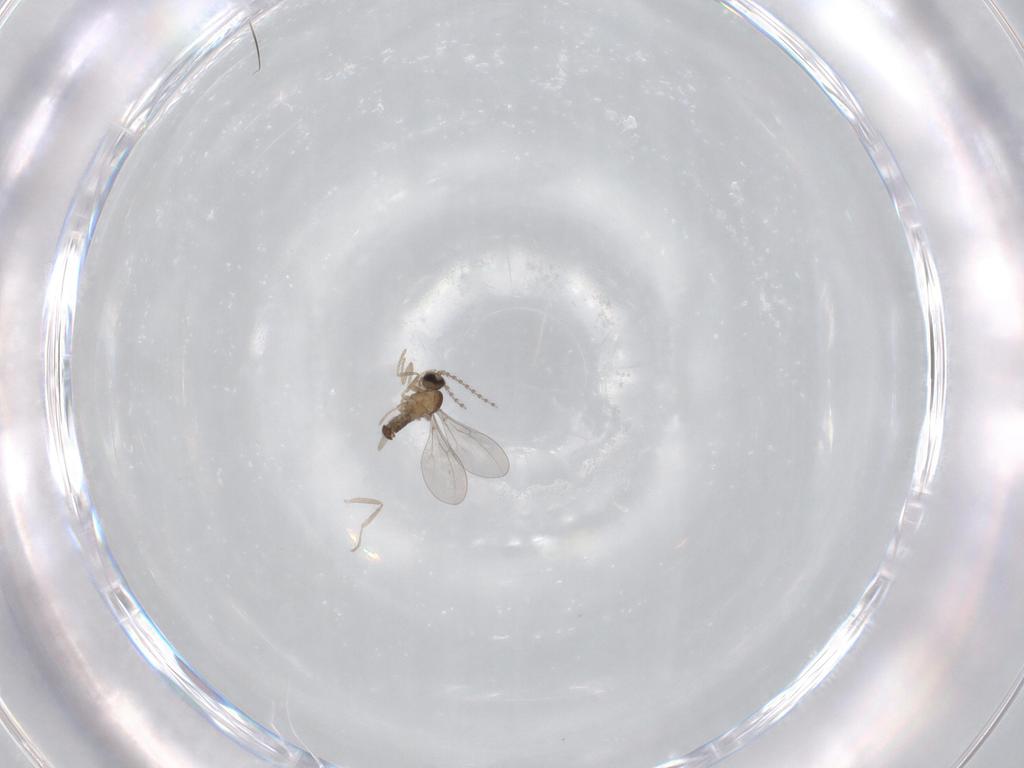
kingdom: Animalia
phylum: Arthropoda
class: Insecta
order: Diptera
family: Cecidomyiidae
